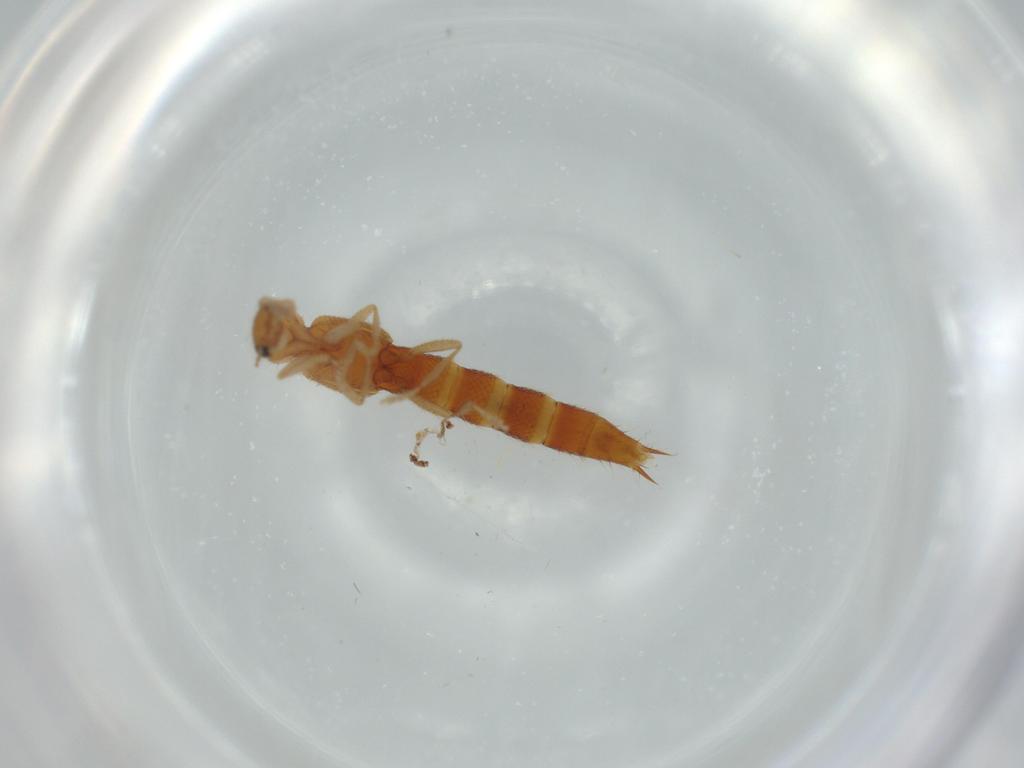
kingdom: Animalia
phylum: Arthropoda
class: Insecta
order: Coleoptera
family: Staphylinidae
